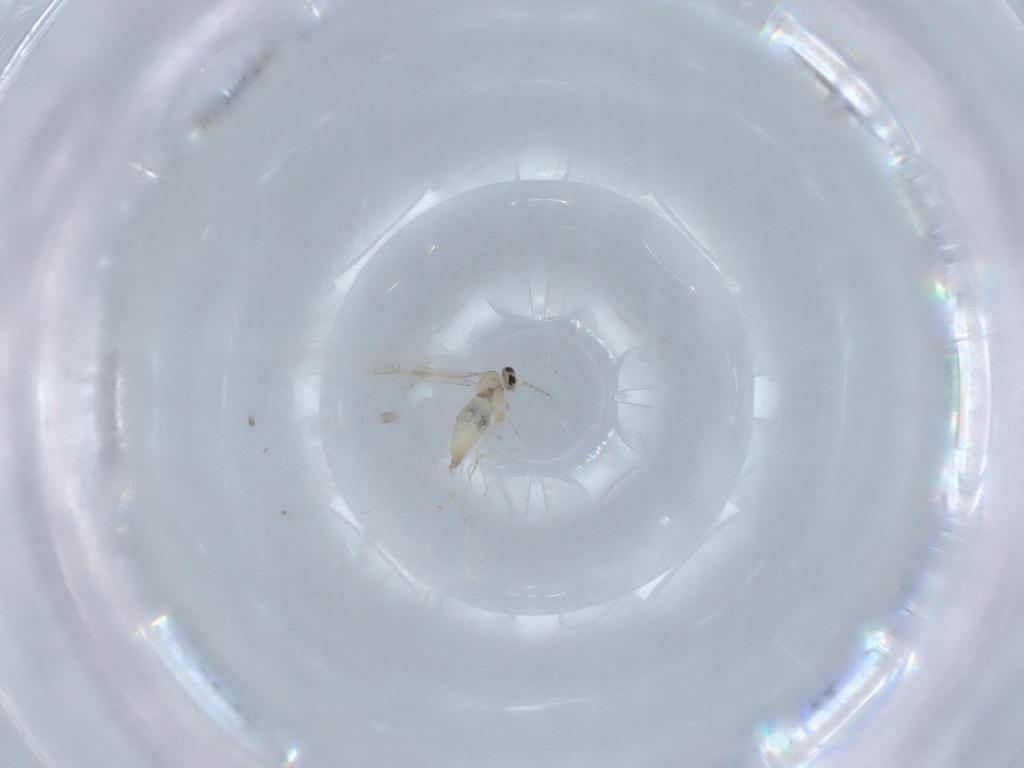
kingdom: Animalia
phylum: Arthropoda
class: Insecta
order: Diptera
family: Cecidomyiidae
